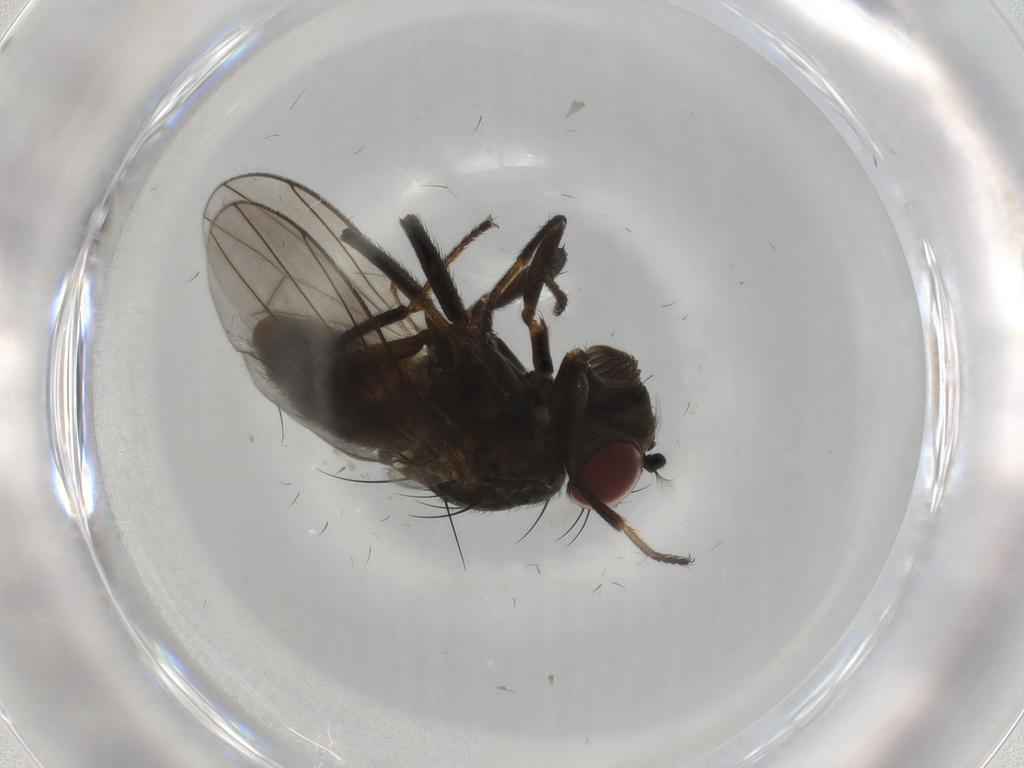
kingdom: Animalia
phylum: Arthropoda
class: Insecta
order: Diptera
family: Ephydridae
